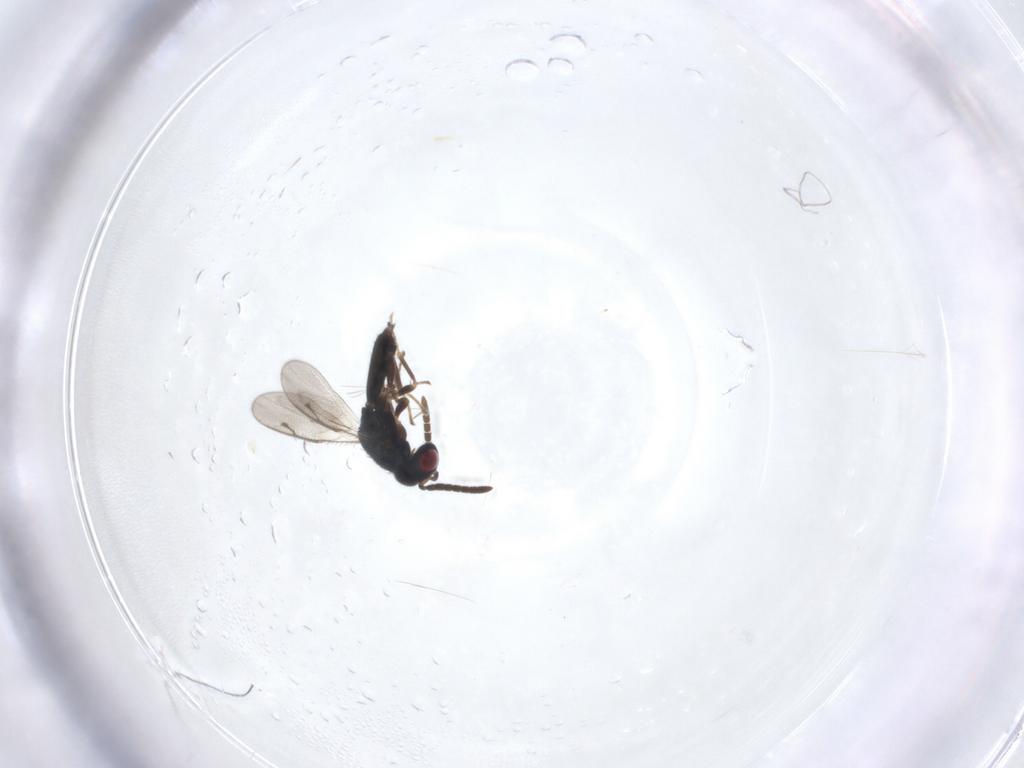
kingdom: Animalia
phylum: Arthropoda
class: Insecta
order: Hymenoptera
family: Pteromalidae
